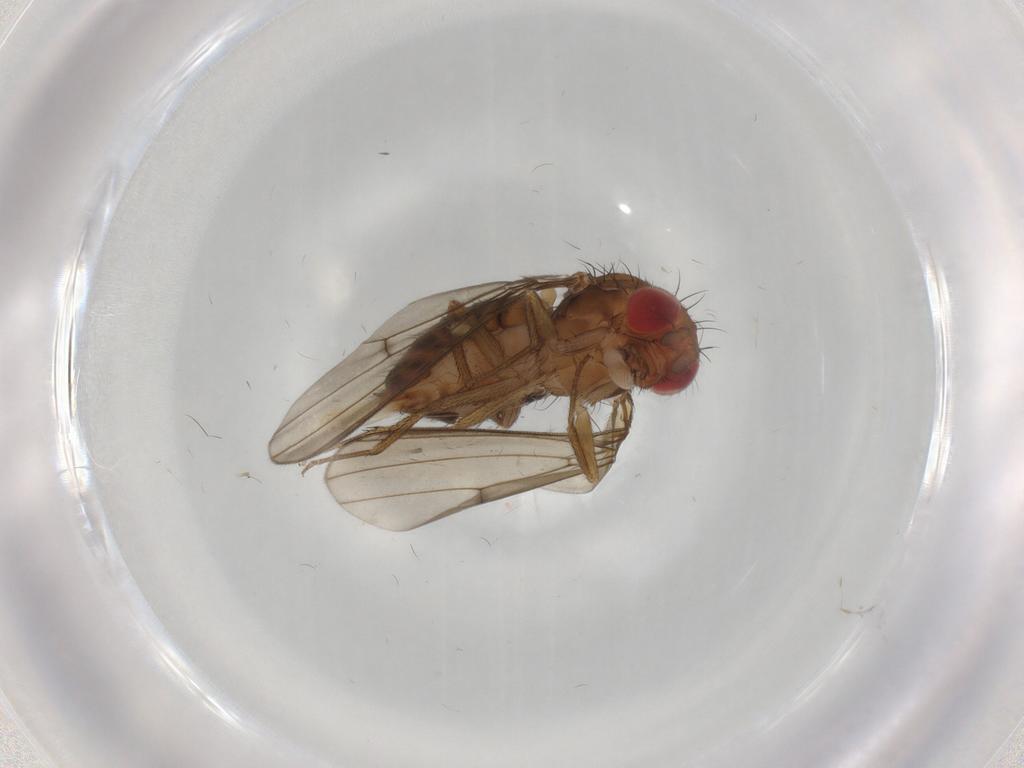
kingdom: Animalia
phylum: Arthropoda
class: Insecta
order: Diptera
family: Drosophilidae
